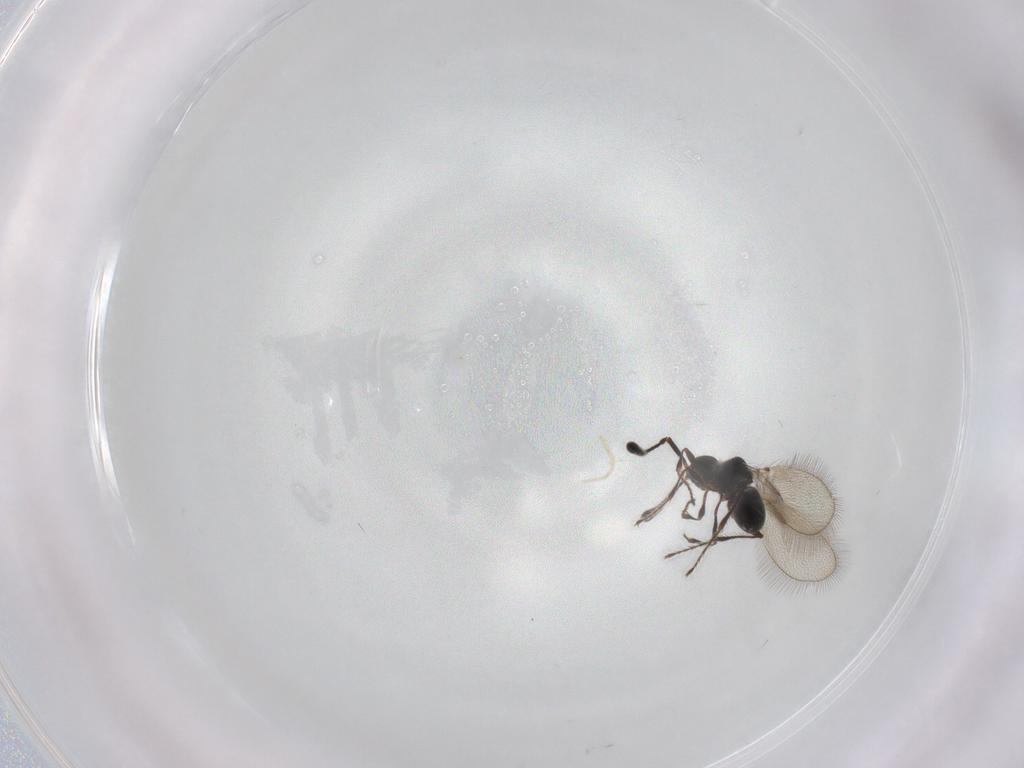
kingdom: Animalia
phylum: Arthropoda
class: Insecta
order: Hymenoptera
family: Diapriidae
